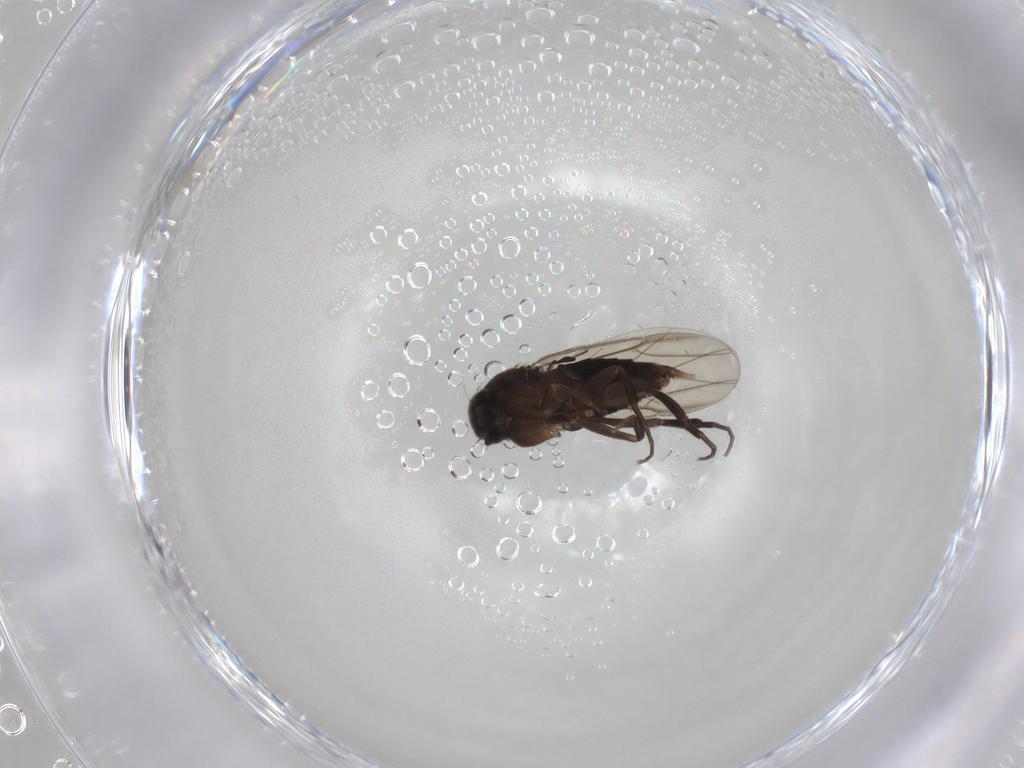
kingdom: Animalia
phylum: Arthropoda
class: Insecta
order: Diptera
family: Phoridae
